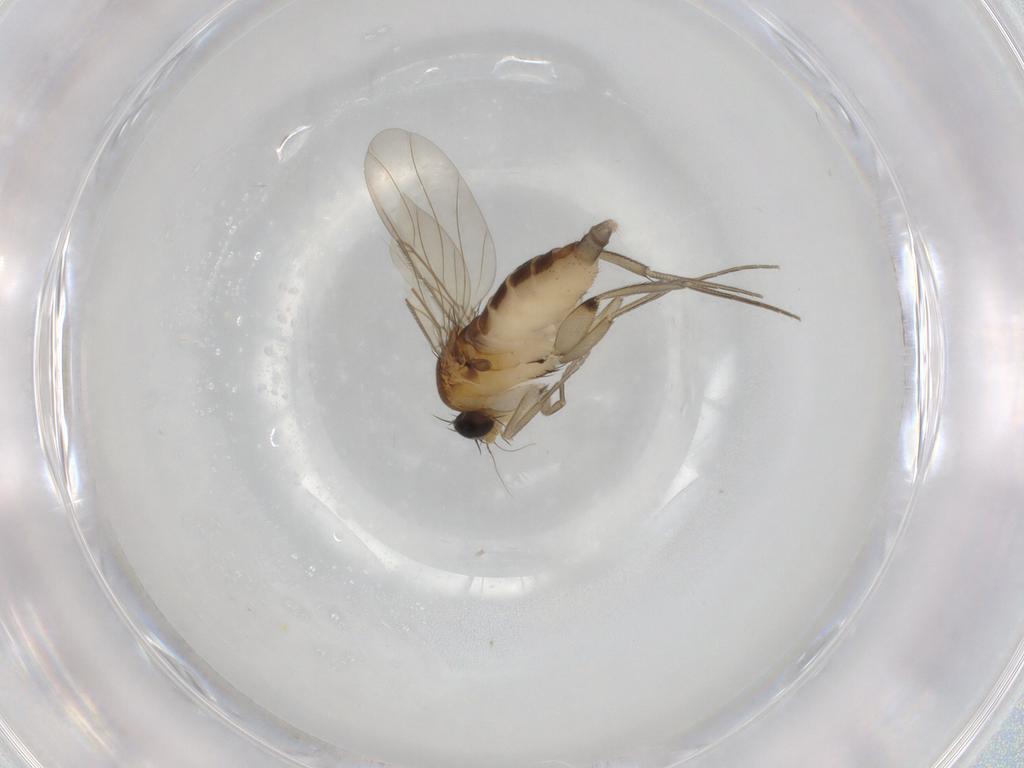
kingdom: Animalia
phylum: Arthropoda
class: Insecta
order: Diptera
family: Phoridae
